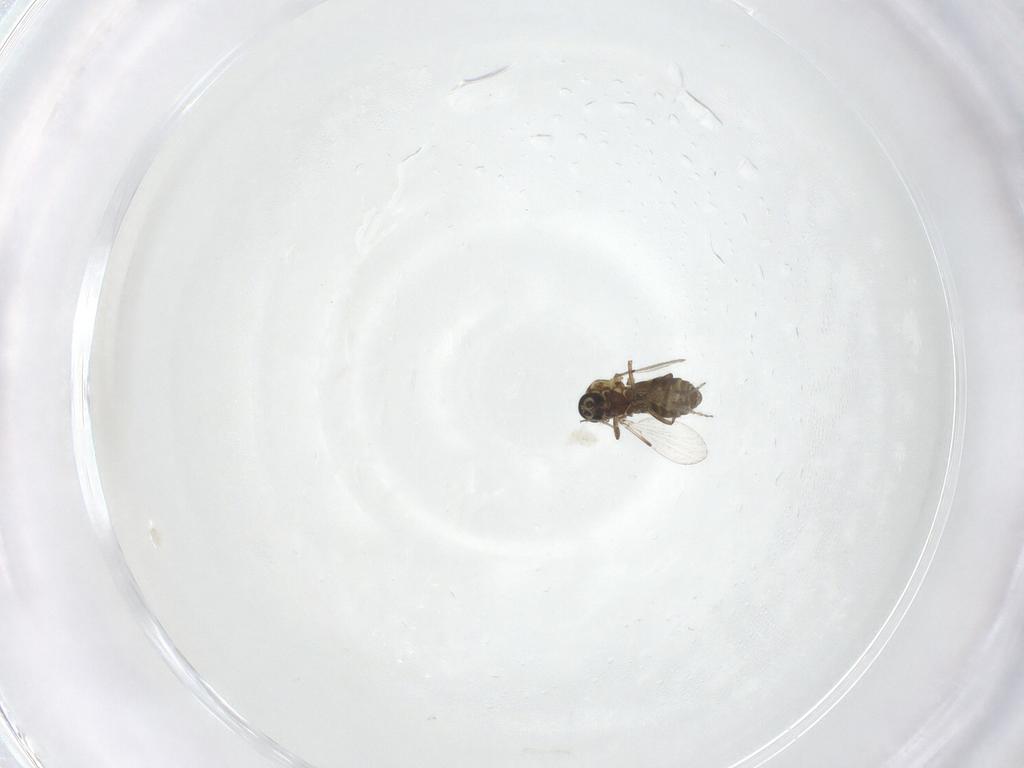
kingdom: Animalia
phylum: Arthropoda
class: Insecta
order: Diptera
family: Ceratopogonidae
